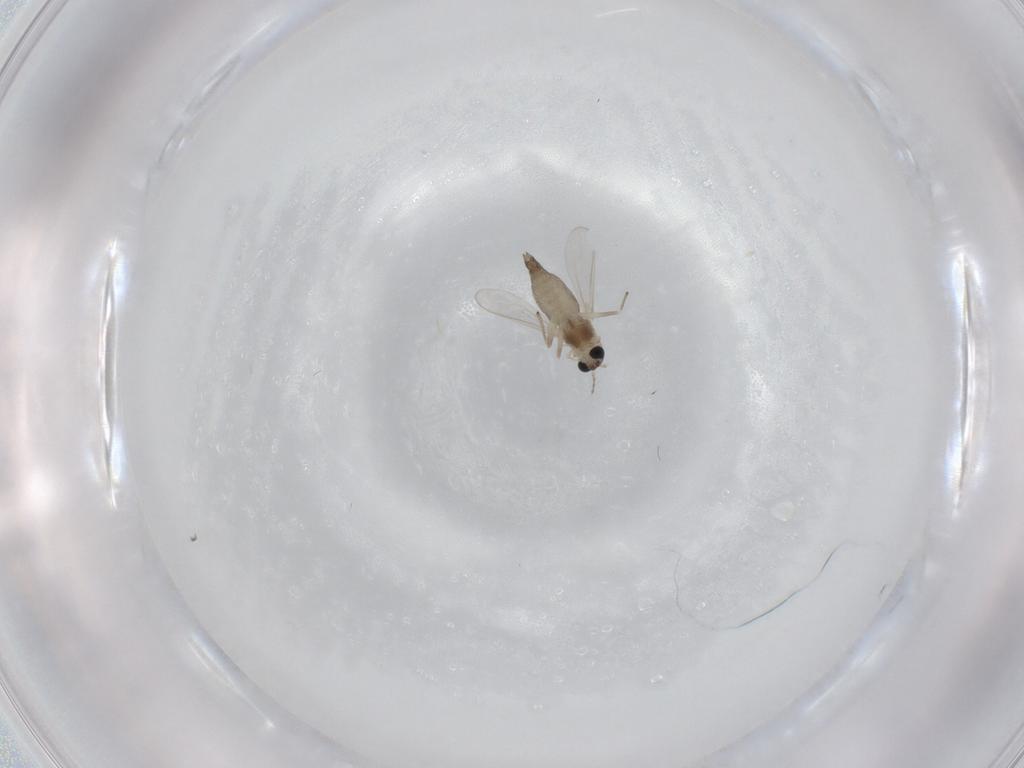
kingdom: Animalia
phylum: Arthropoda
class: Insecta
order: Diptera
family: Chironomidae
